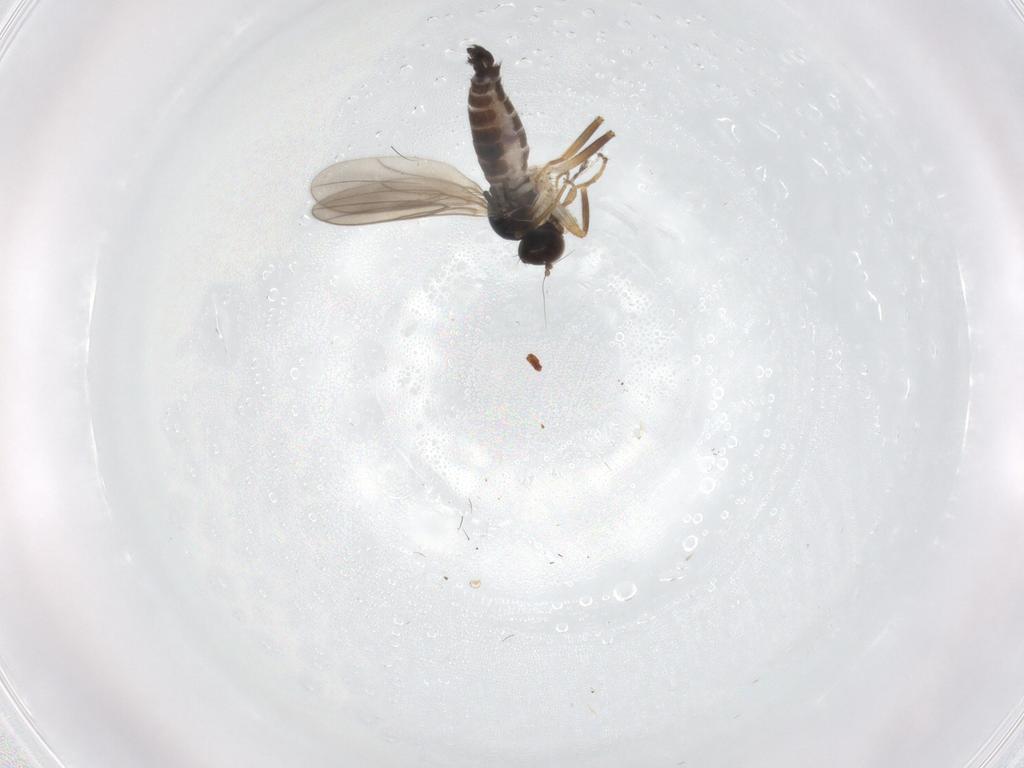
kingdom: Animalia
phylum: Arthropoda
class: Insecta
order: Diptera
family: Hybotidae
